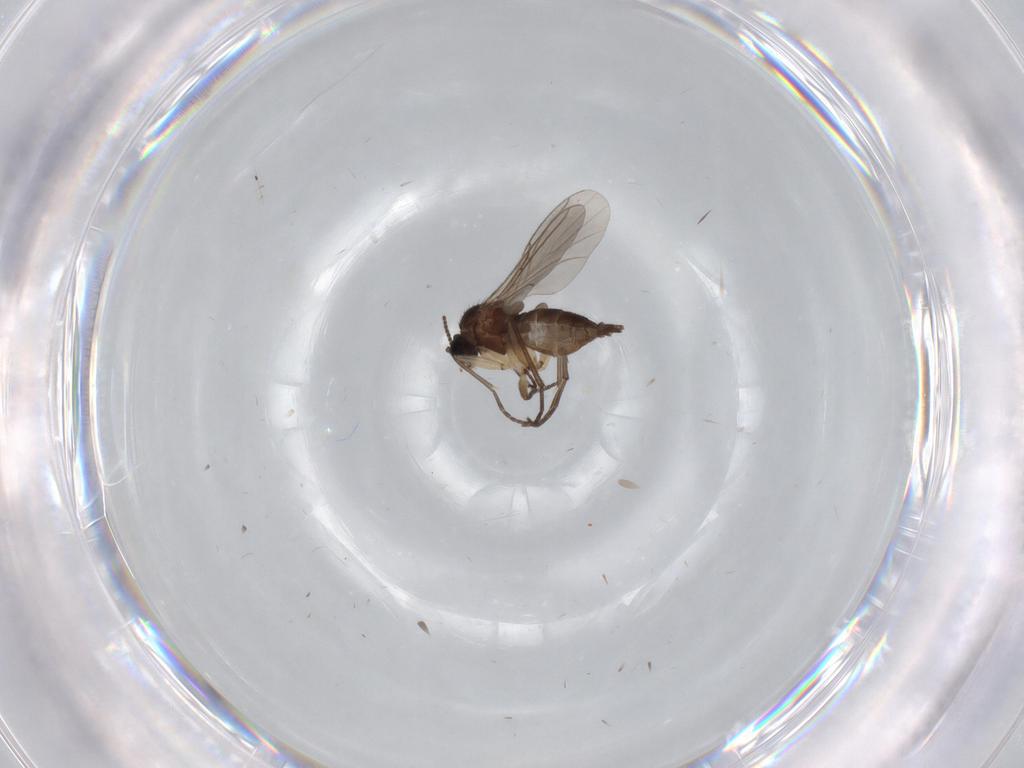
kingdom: Animalia
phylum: Arthropoda
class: Insecta
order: Diptera
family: Sciaridae
